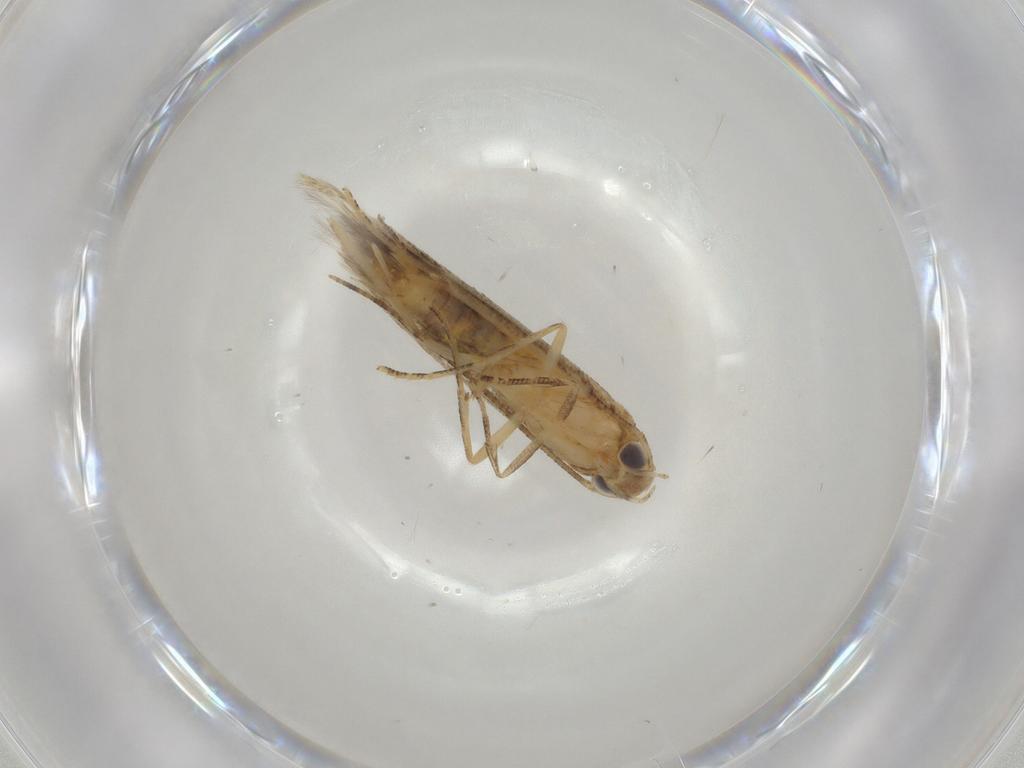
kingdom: Animalia
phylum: Arthropoda
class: Insecta
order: Lepidoptera
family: Elachistidae
